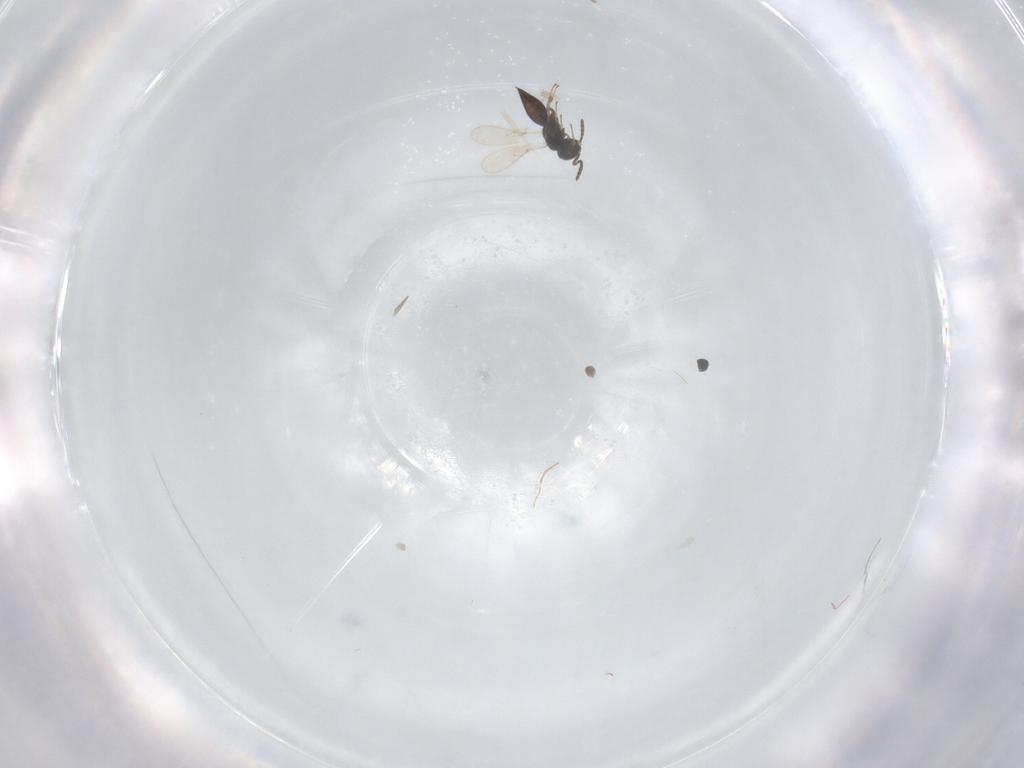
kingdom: Animalia
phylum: Arthropoda
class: Insecta
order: Hymenoptera
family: Scelionidae
